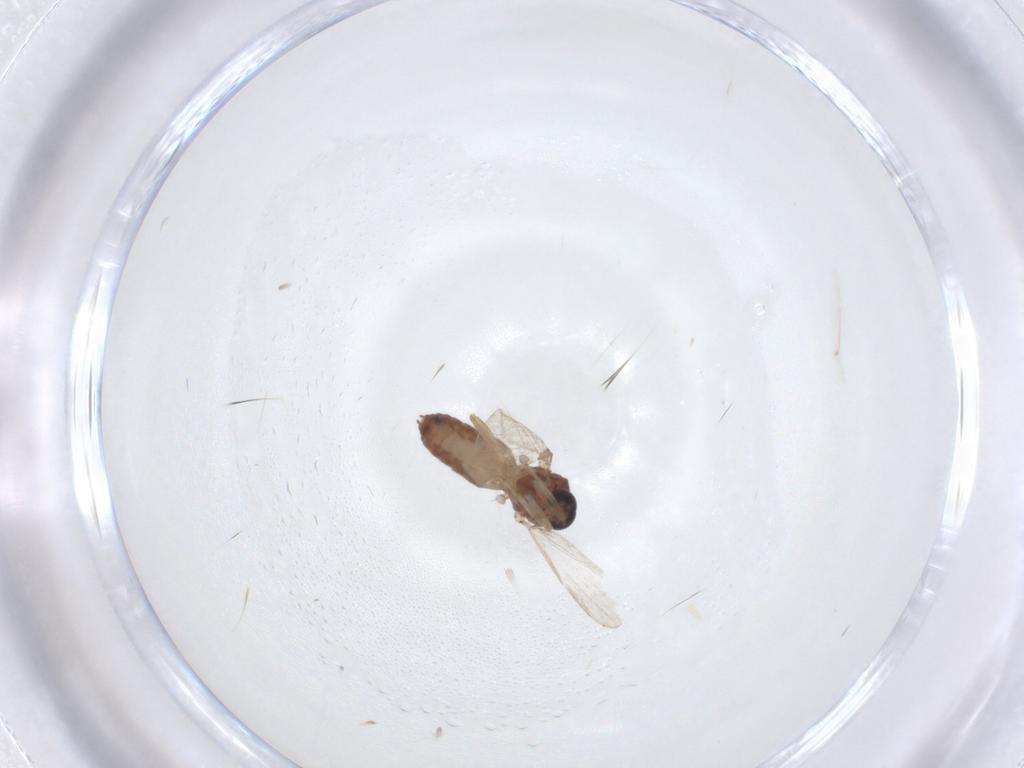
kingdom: Animalia
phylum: Arthropoda
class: Insecta
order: Diptera
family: Ceratopogonidae
